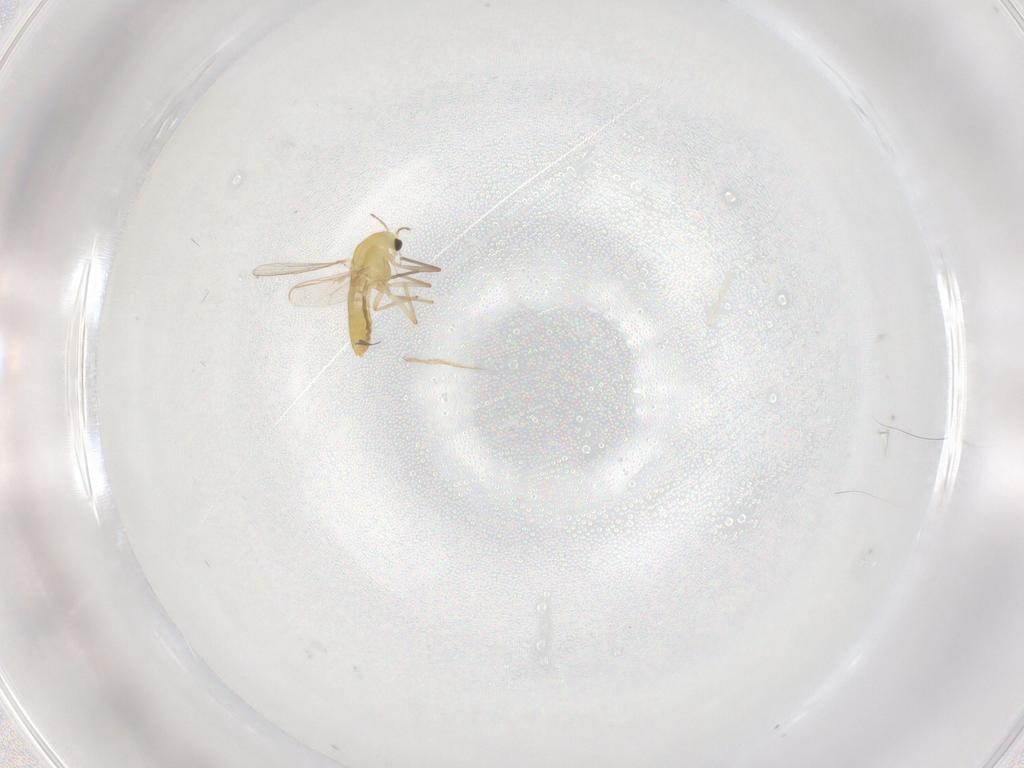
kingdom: Animalia
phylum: Arthropoda
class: Insecta
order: Diptera
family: Chironomidae
